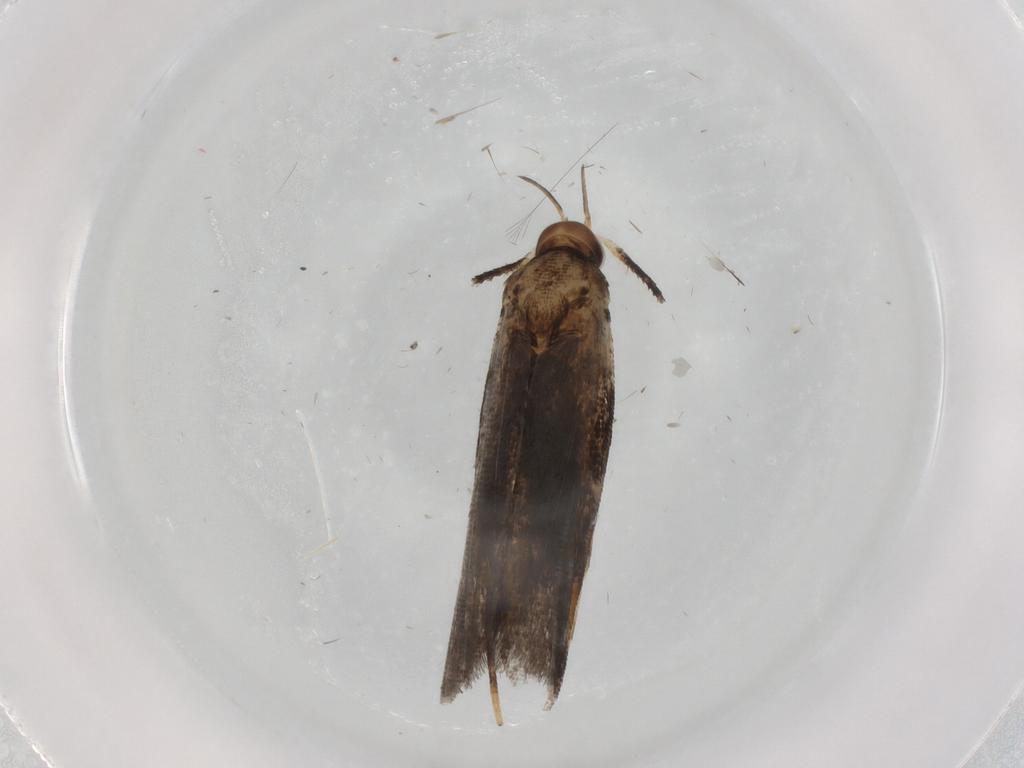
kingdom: Animalia
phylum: Arthropoda
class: Insecta
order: Lepidoptera
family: Gelechiidae
